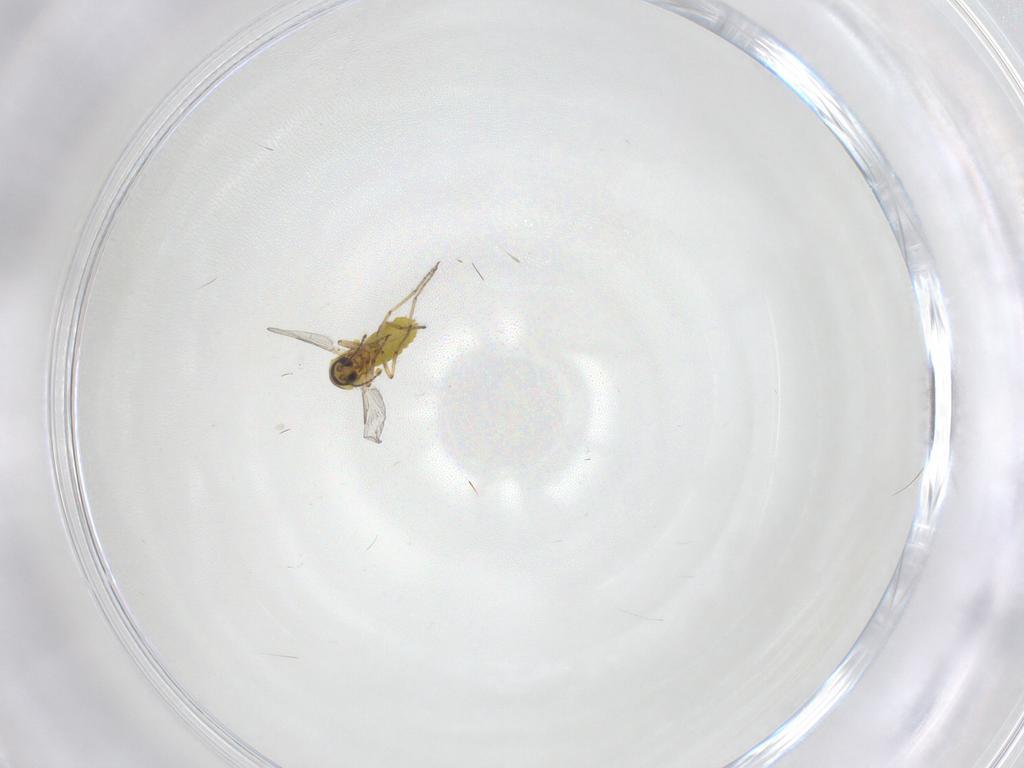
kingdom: Animalia
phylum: Arthropoda
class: Insecta
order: Diptera
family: Ceratopogonidae
